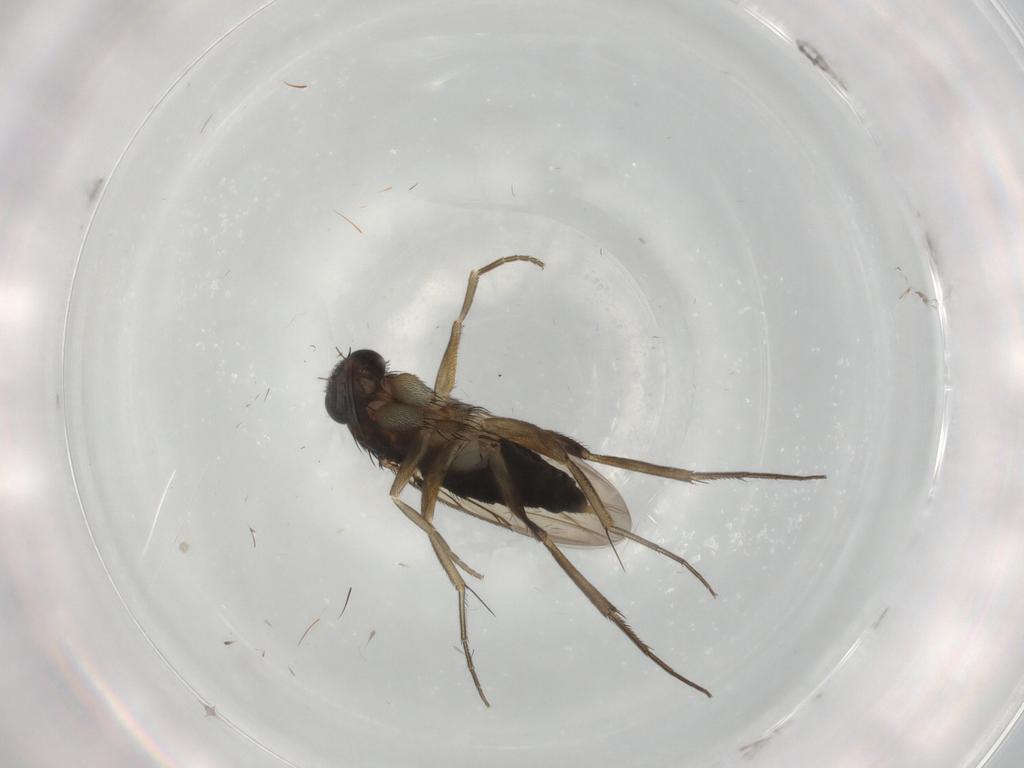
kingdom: Animalia
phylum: Arthropoda
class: Insecta
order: Diptera
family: Phoridae
